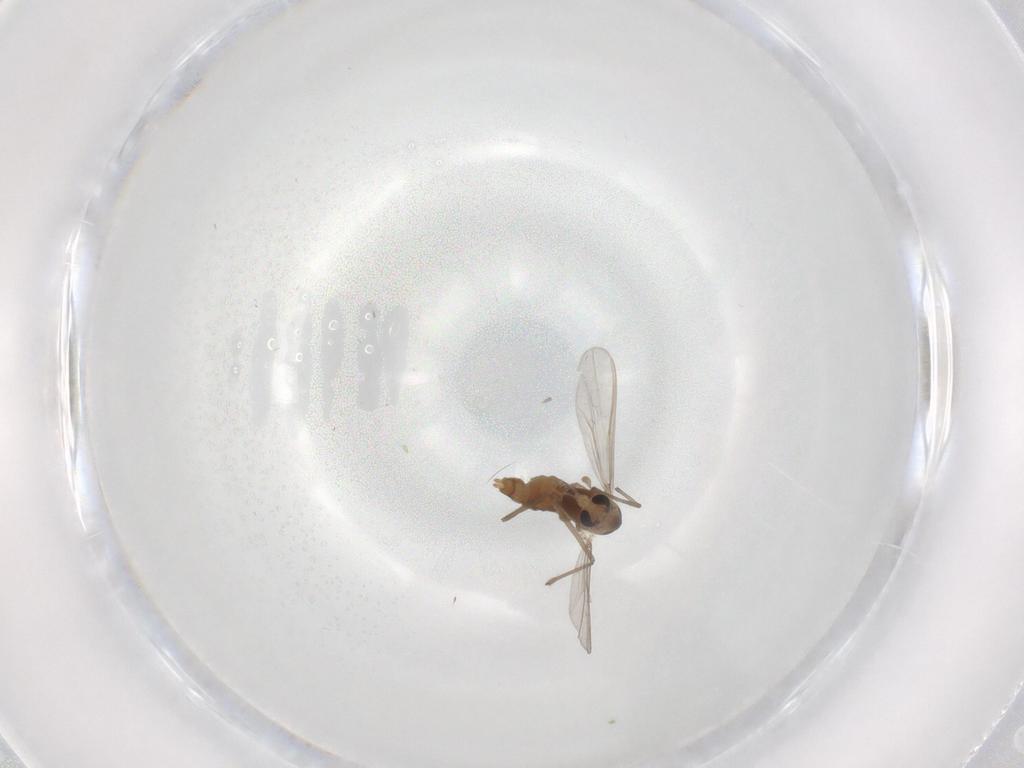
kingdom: Animalia
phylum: Arthropoda
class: Insecta
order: Diptera
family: Chironomidae
